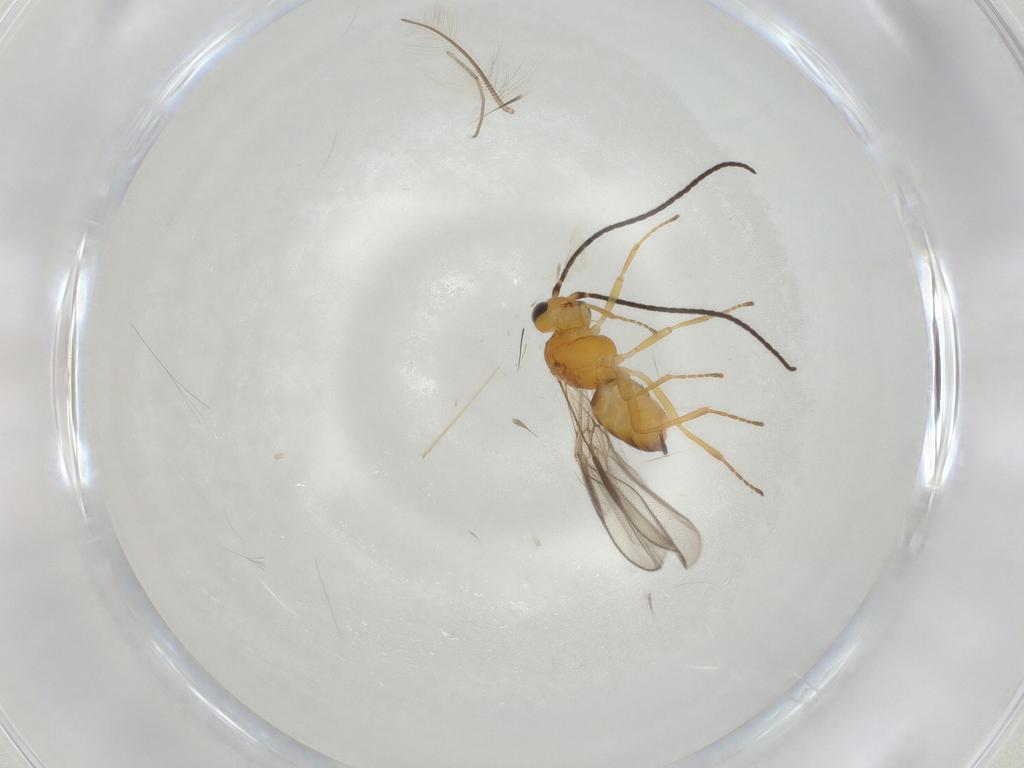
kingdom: Animalia
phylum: Arthropoda
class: Insecta
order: Hymenoptera
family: Braconidae
